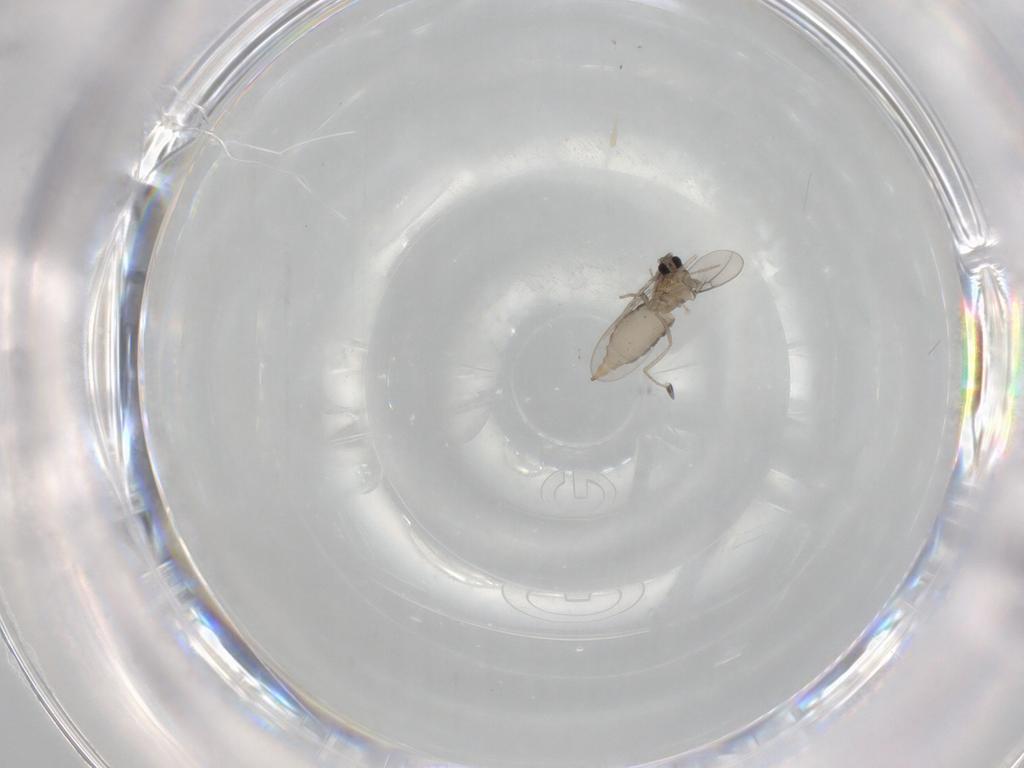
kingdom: Animalia
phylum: Arthropoda
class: Insecta
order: Diptera
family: Cecidomyiidae
